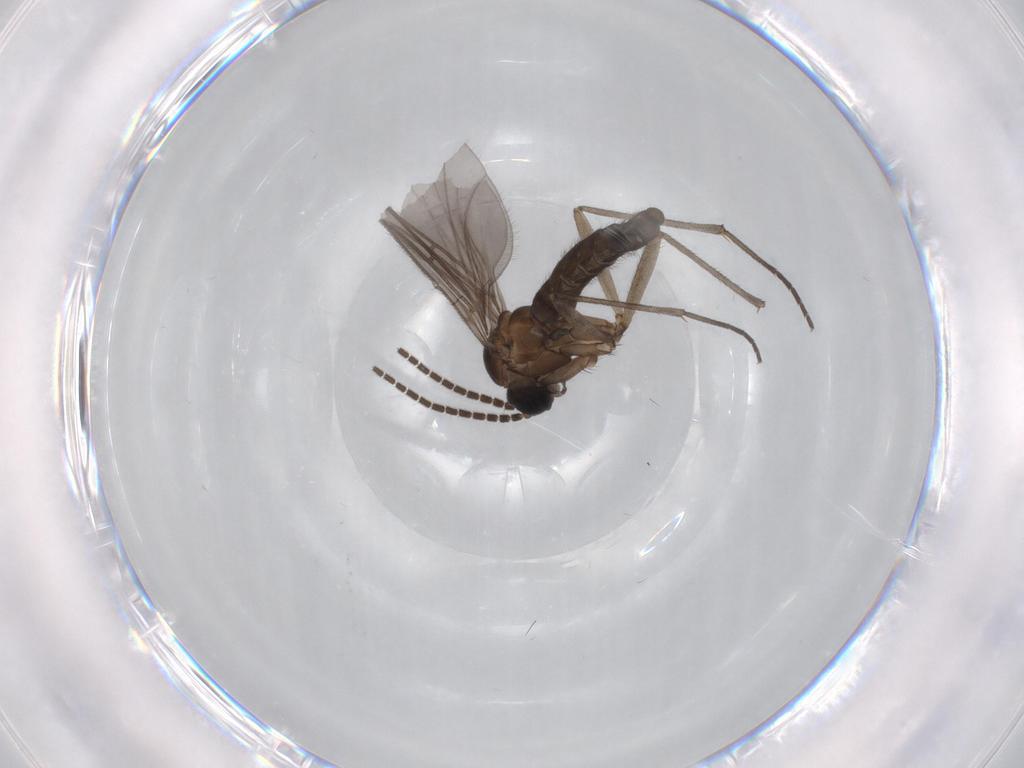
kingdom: Animalia
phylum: Arthropoda
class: Insecta
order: Diptera
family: Sciaridae
